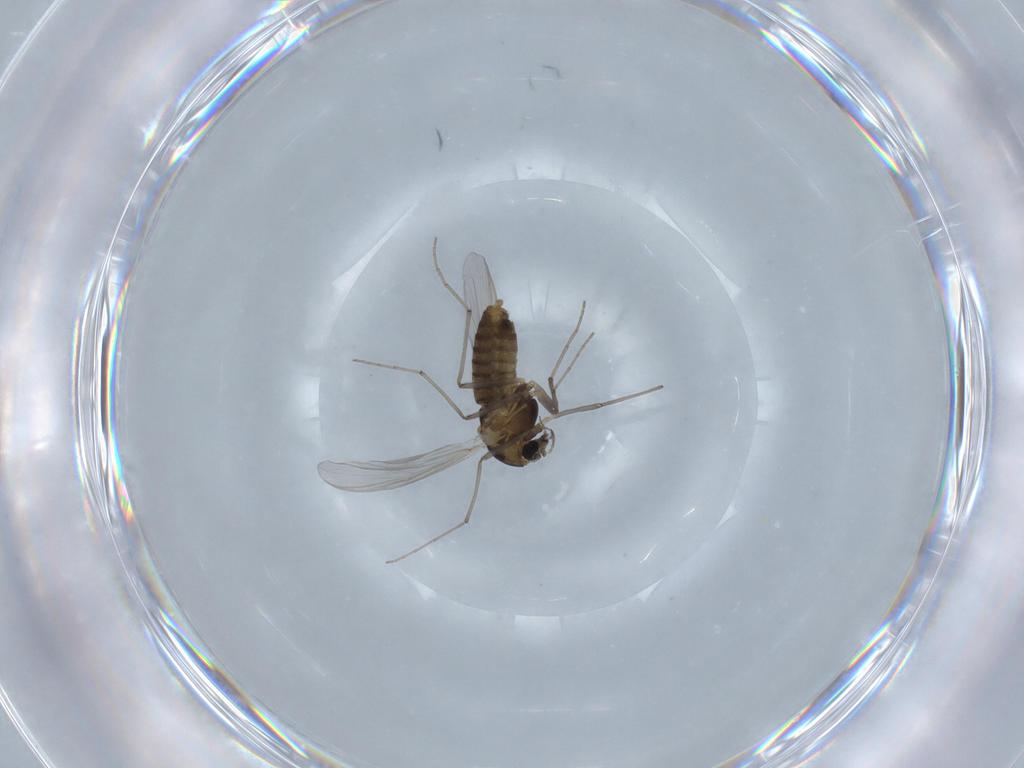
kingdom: Animalia
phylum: Arthropoda
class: Insecta
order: Diptera
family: Chironomidae
